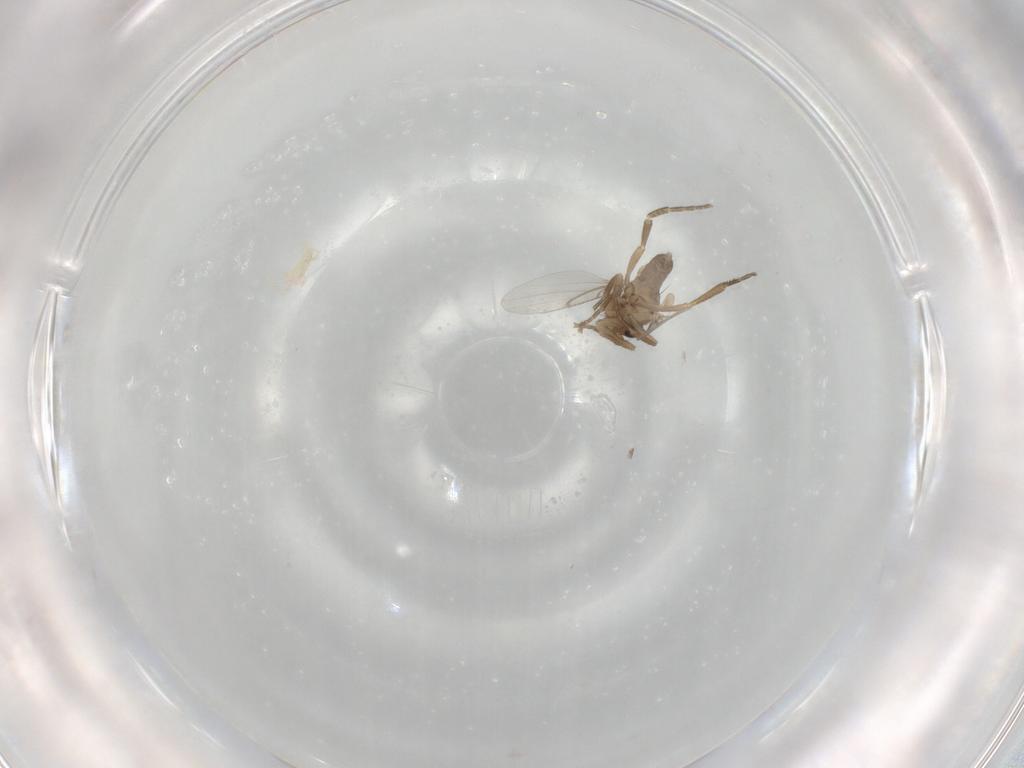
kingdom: Animalia
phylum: Arthropoda
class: Insecta
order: Diptera
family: Phoridae
